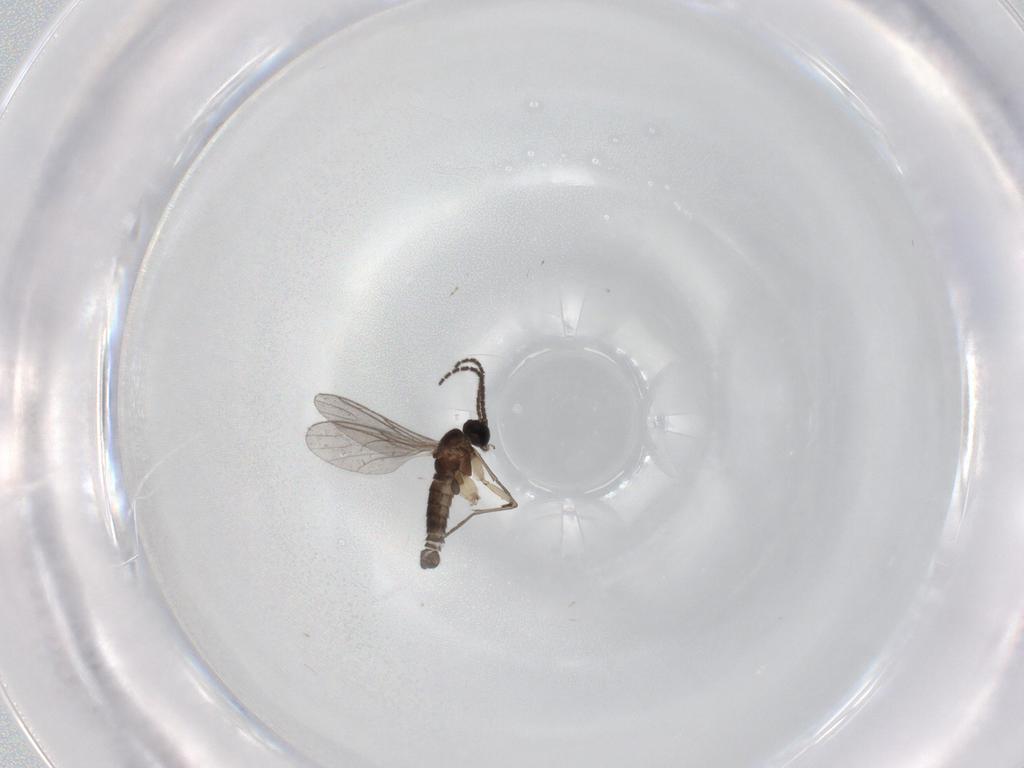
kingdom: Animalia
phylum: Arthropoda
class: Insecta
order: Diptera
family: Sciaridae
